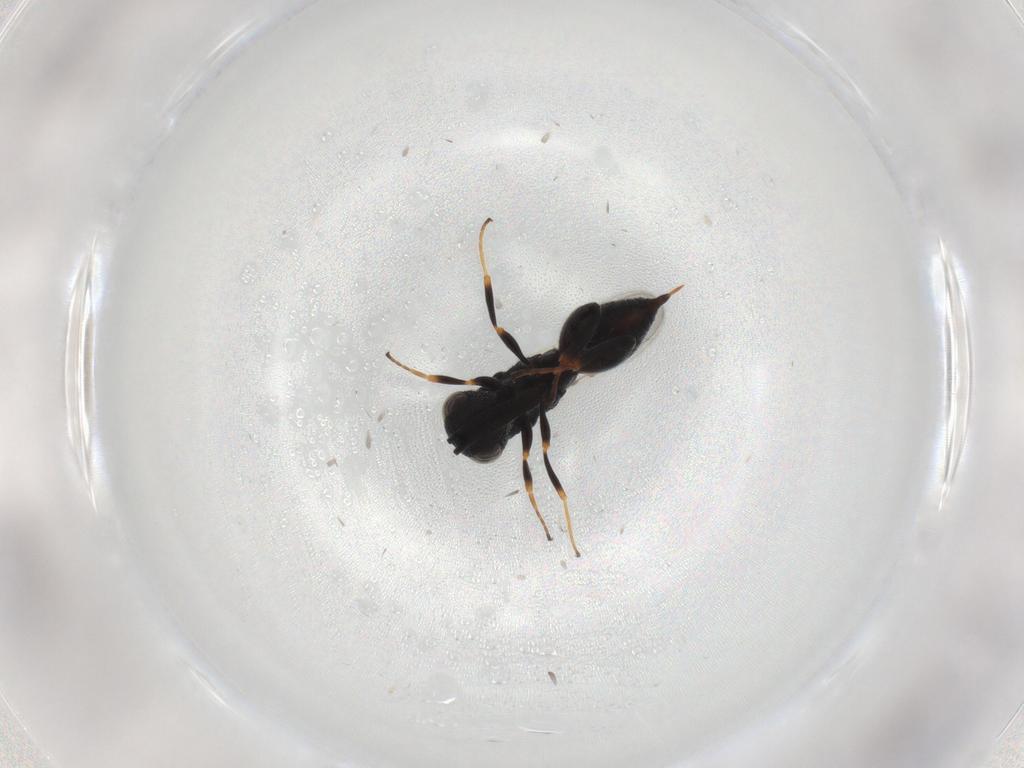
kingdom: Animalia
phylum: Arthropoda
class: Insecta
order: Hymenoptera
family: Chalcididae
